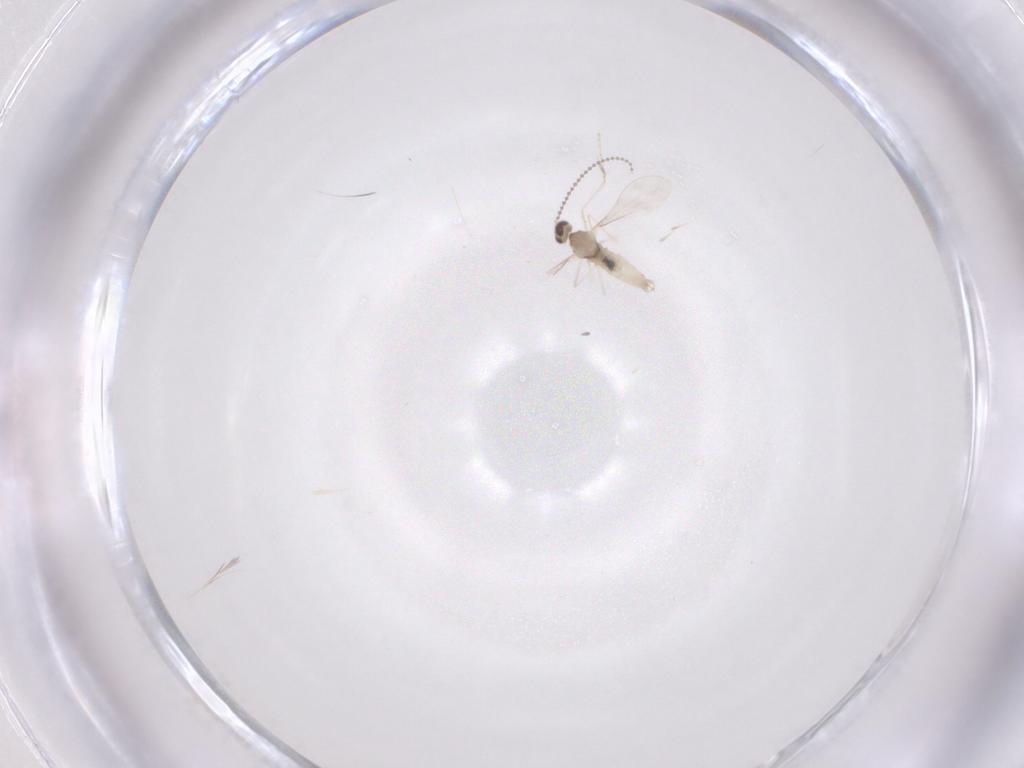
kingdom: Animalia
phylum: Arthropoda
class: Insecta
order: Diptera
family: Cecidomyiidae
